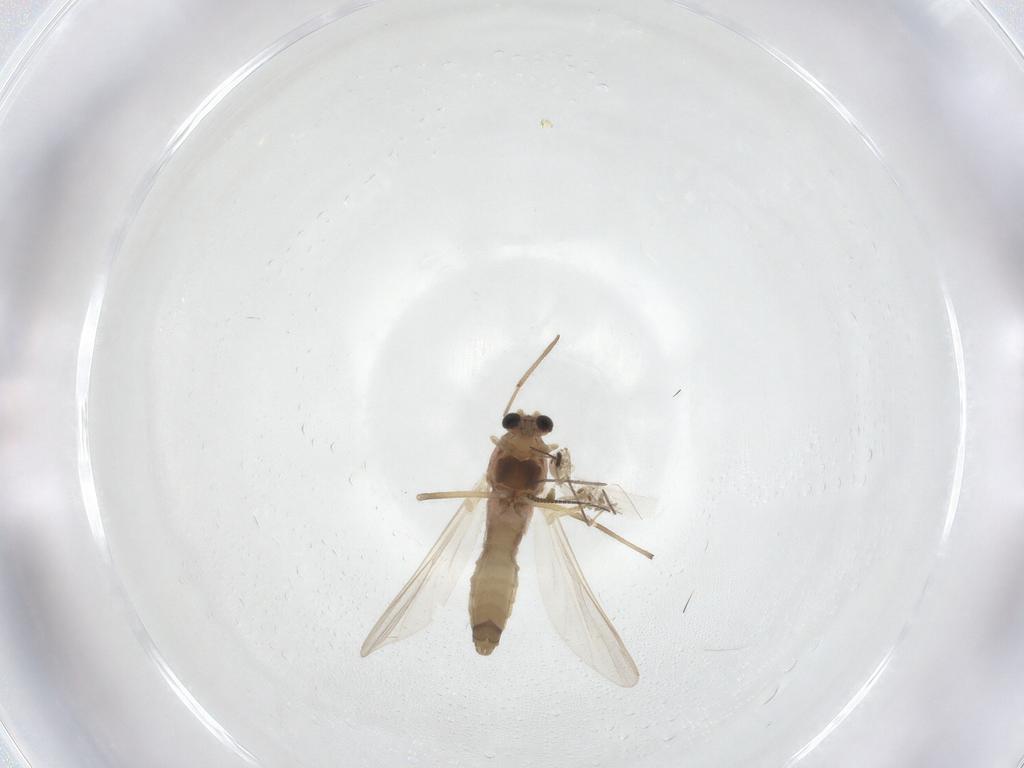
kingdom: Animalia
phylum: Arthropoda
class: Insecta
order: Diptera
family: Chironomidae
